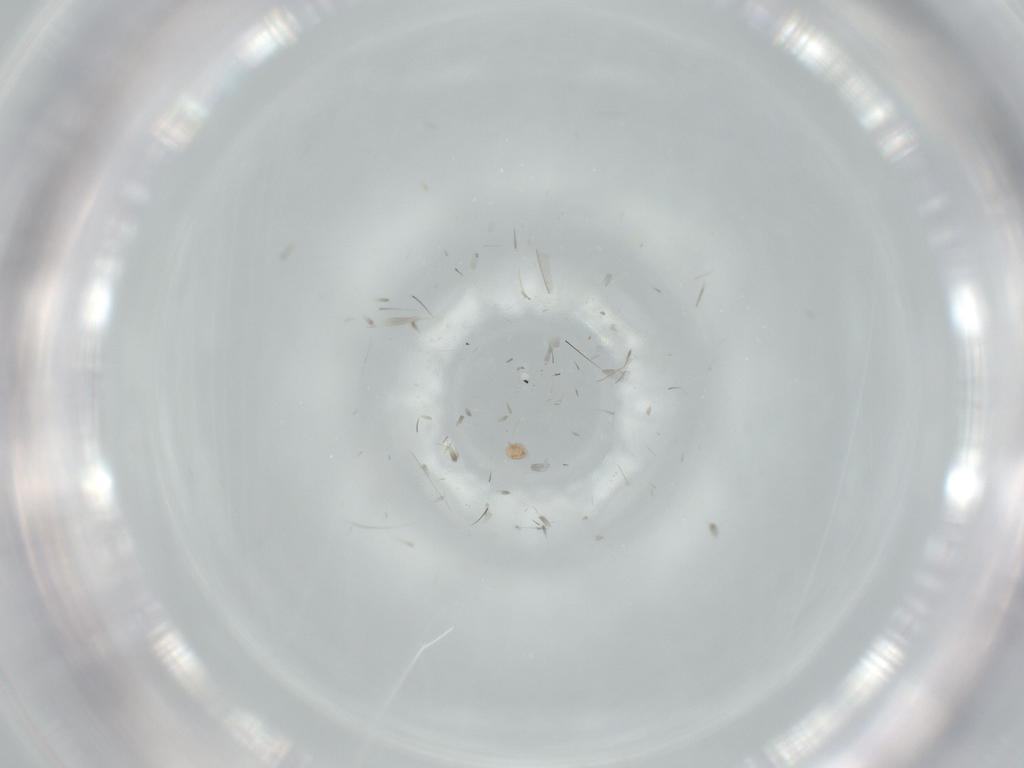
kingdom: Animalia
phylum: Arthropoda
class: Arachnida
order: Trombidiformes
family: Scutacaridae
